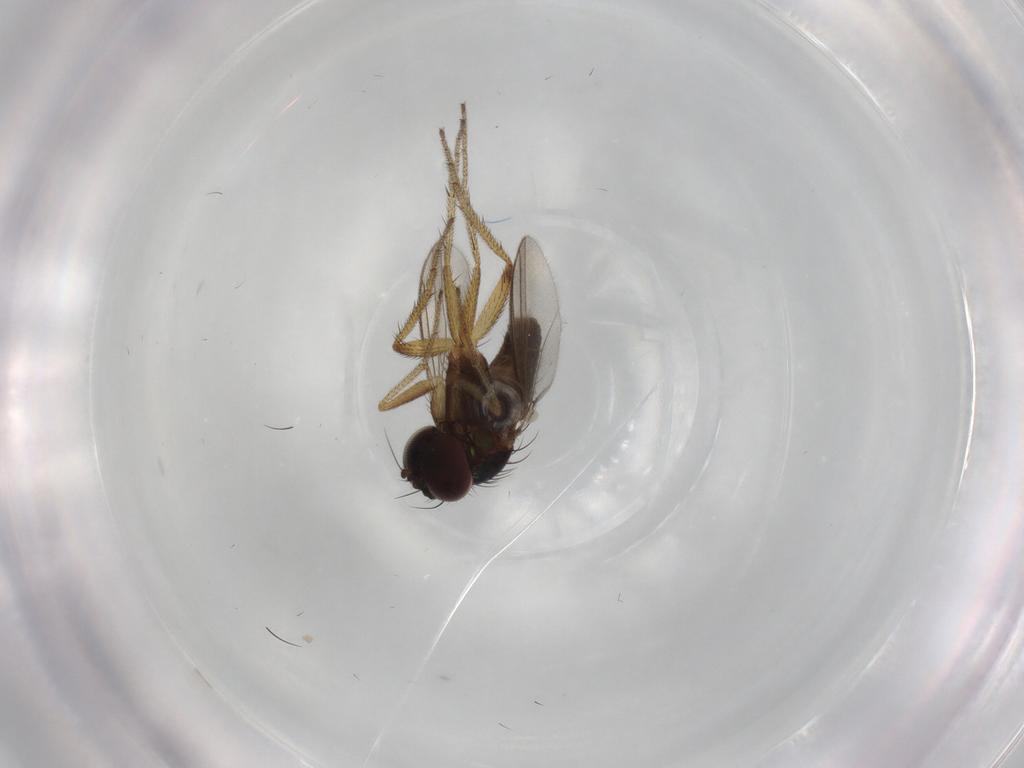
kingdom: Animalia
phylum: Arthropoda
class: Insecta
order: Diptera
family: Dolichopodidae
